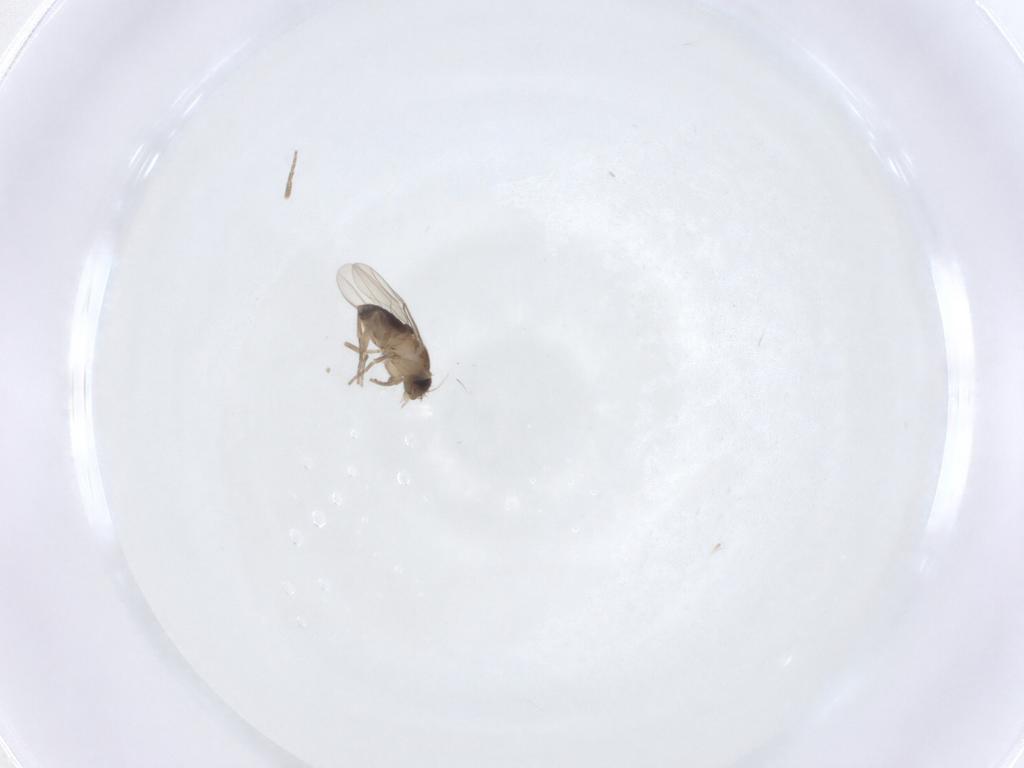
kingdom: Animalia
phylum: Arthropoda
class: Insecta
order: Diptera
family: Phoridae
